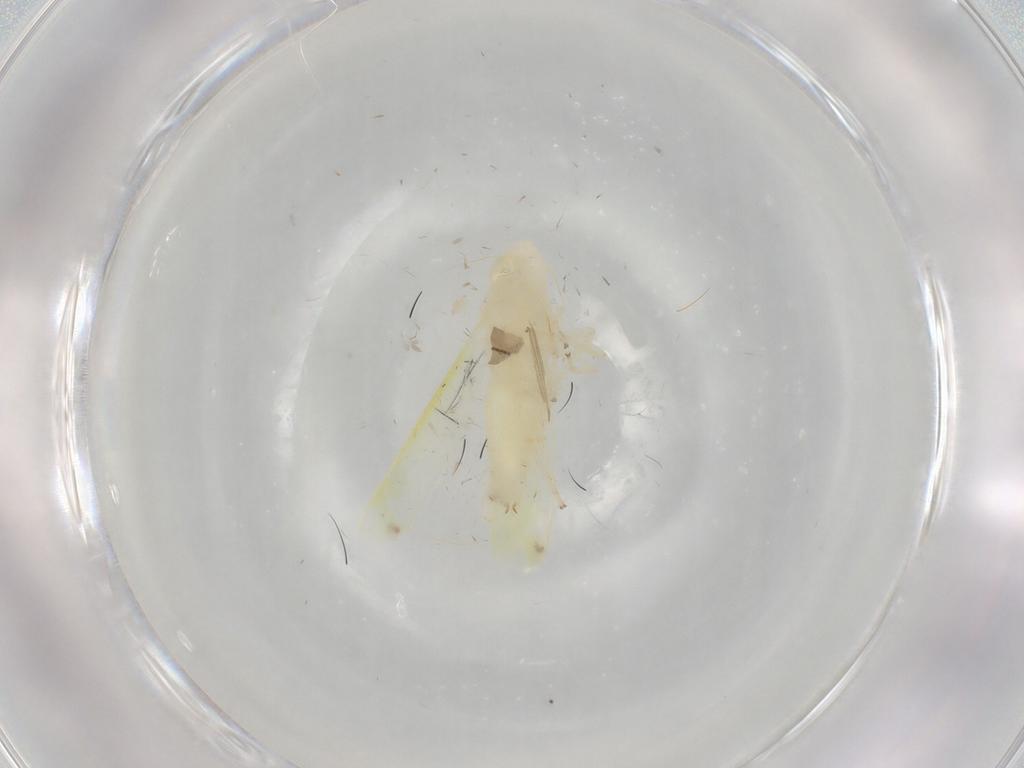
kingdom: Animalia
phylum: Arthropoda
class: Insecta
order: Hemiptera
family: Cicadellidae
